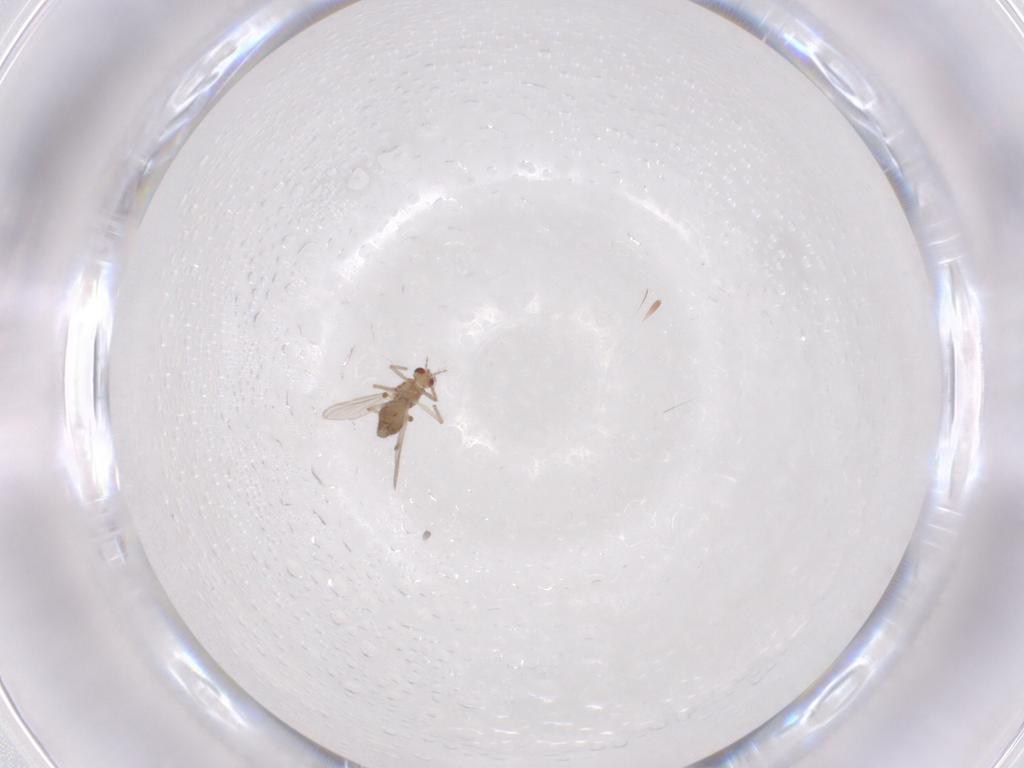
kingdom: Animalia
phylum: Arthropoda
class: Insecta
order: Diptera
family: Chironomidae
